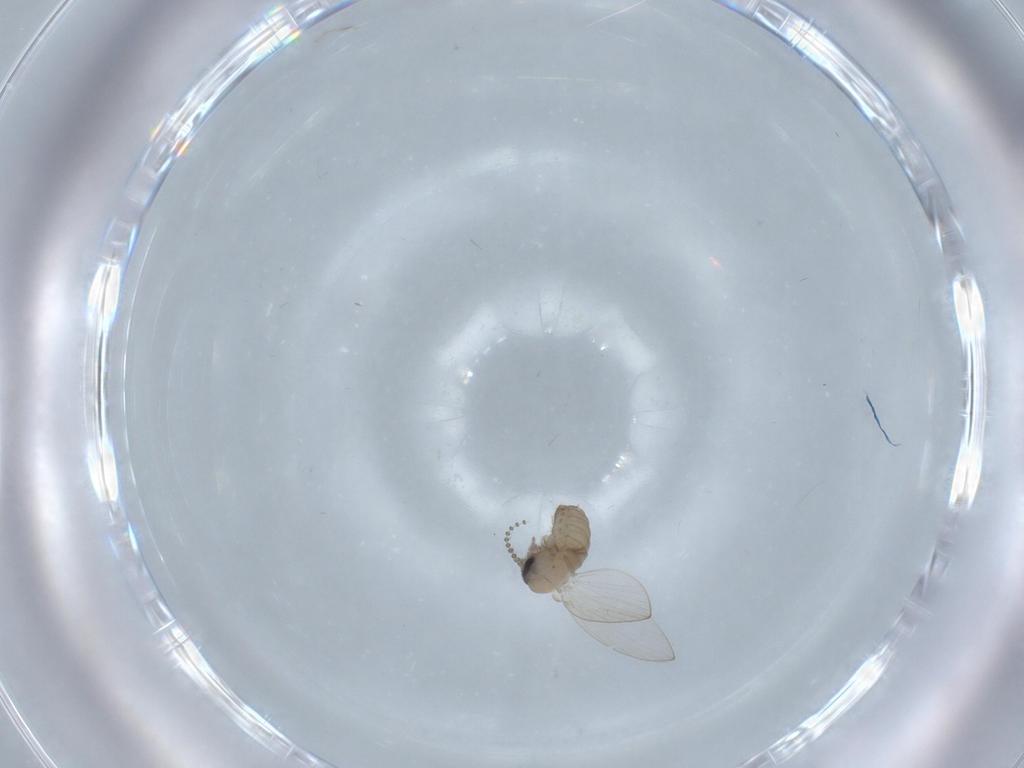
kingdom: Animalia
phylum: Arthropoda
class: Insecta
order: Diptera
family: Psychodidae
